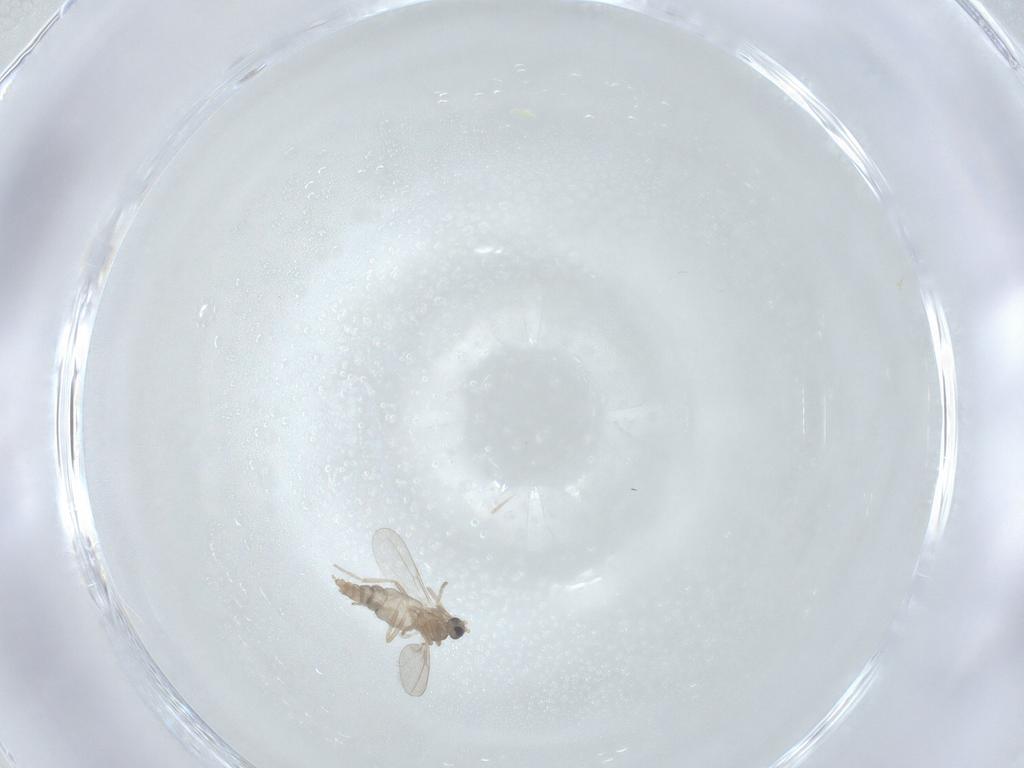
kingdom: Animalia
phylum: Arthropoda
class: Insecta
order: Diptera
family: Cecidomyiidae
